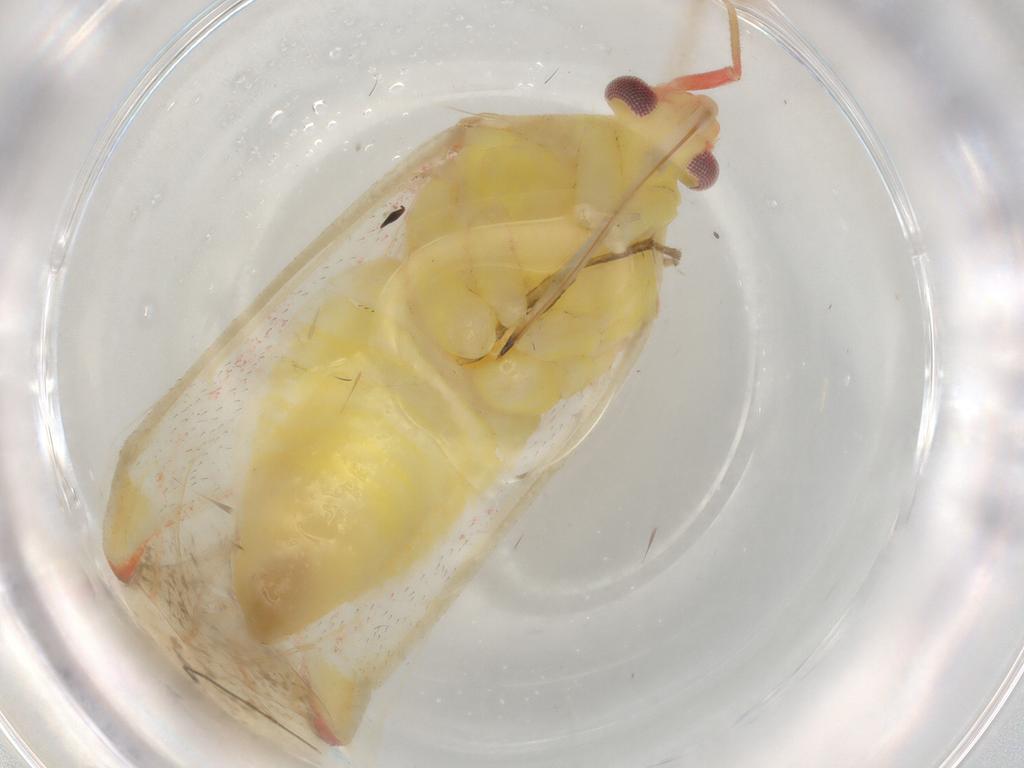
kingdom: Animalia
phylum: Arthropoda
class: Insecta
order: Hemiptera
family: Miridae
